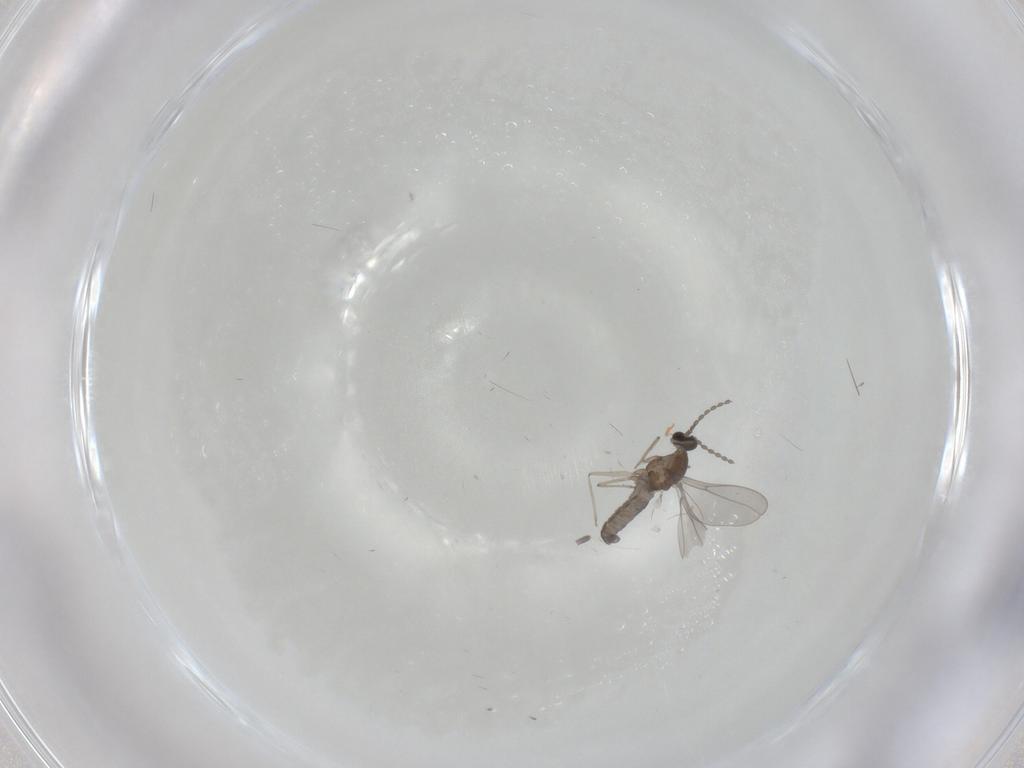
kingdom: Animalia
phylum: Arthropoda
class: Insecta
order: Diptera
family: Cecidomyiidae
